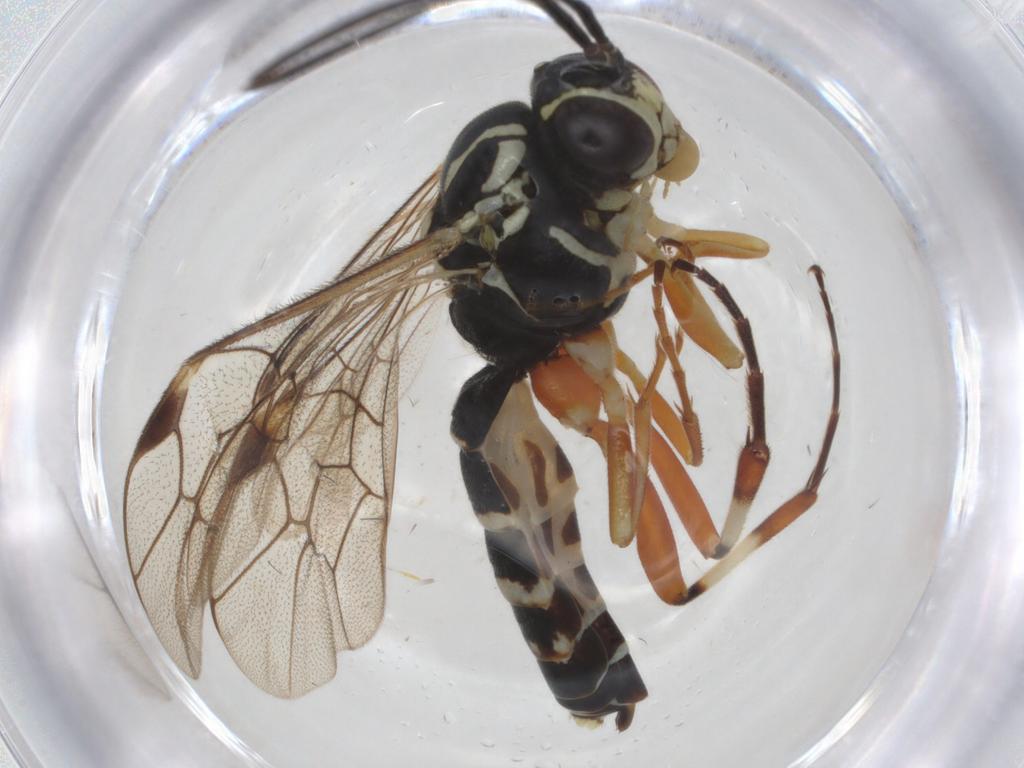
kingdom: Animalia
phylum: Arthropoda
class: Insecta
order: Hymenoptera
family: Ichneumonidae
